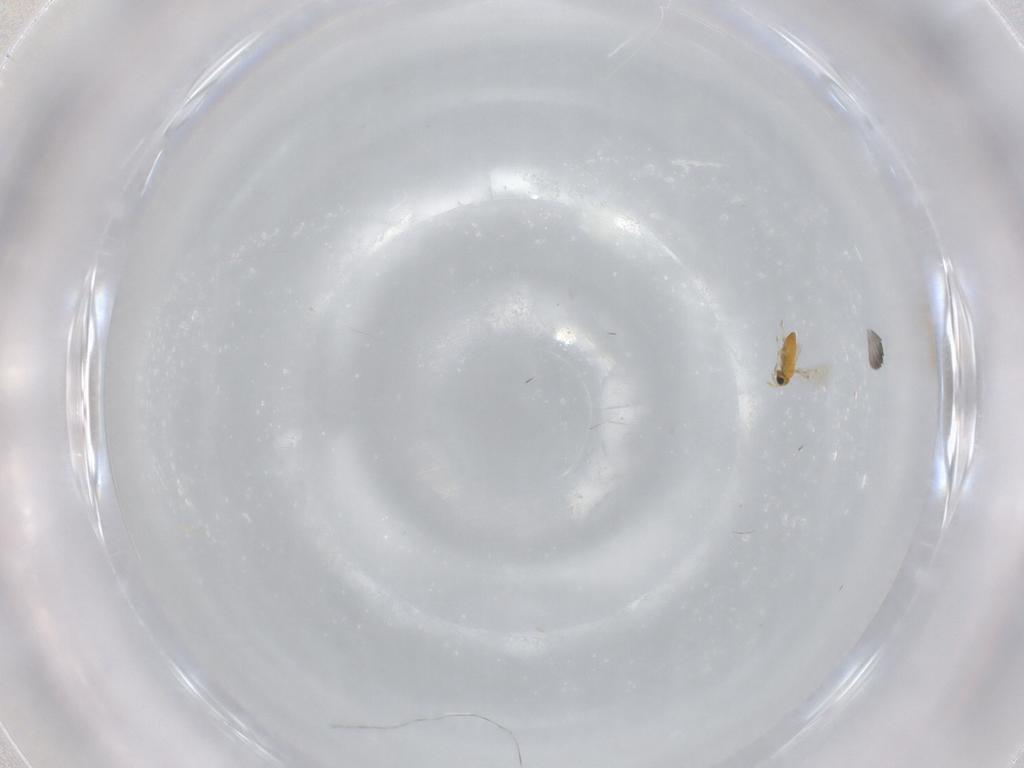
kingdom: Animalia
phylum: Arthropoda
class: Insecta
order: Hymenoptera
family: Trichogrammatidae
